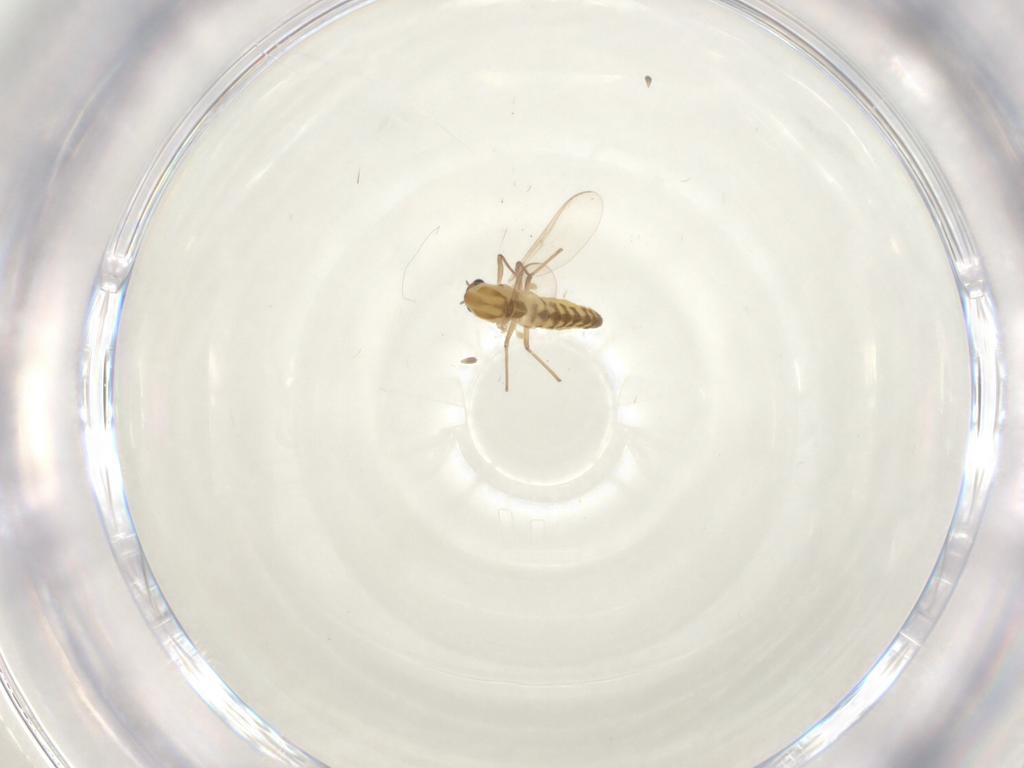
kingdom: Animalia
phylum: Arthropoda
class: Insecta
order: Diptera
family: Chironomidae
